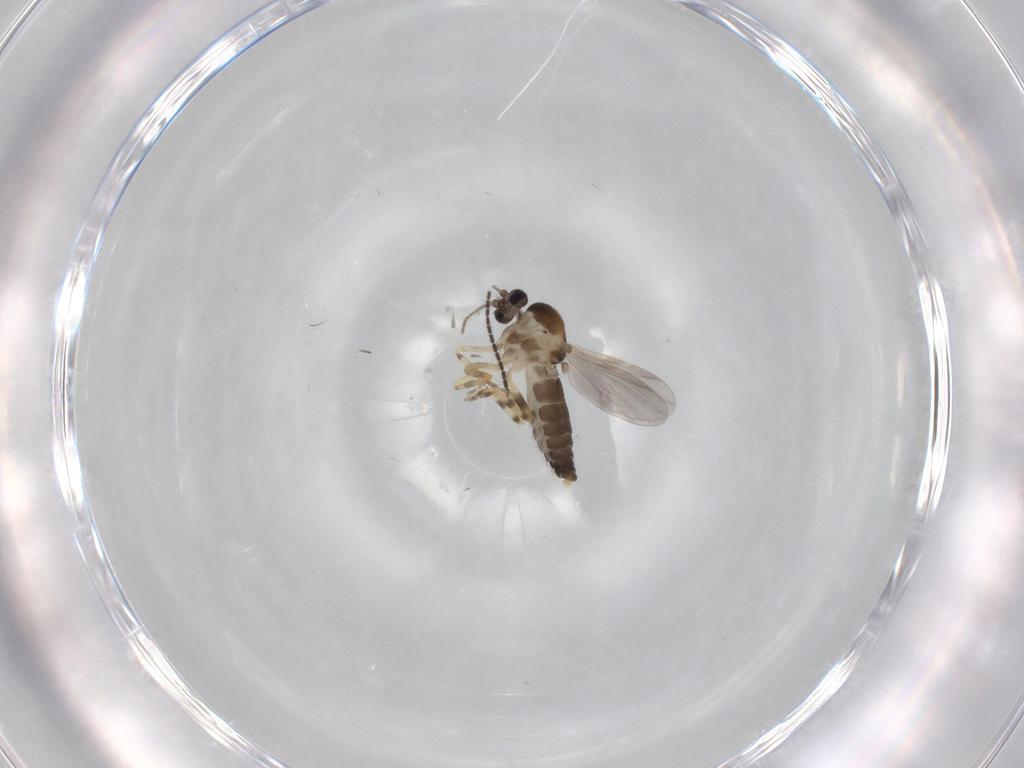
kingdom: Animalia
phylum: Arthropoda
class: Insecta
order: Diptera
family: Ceratopogonidae
